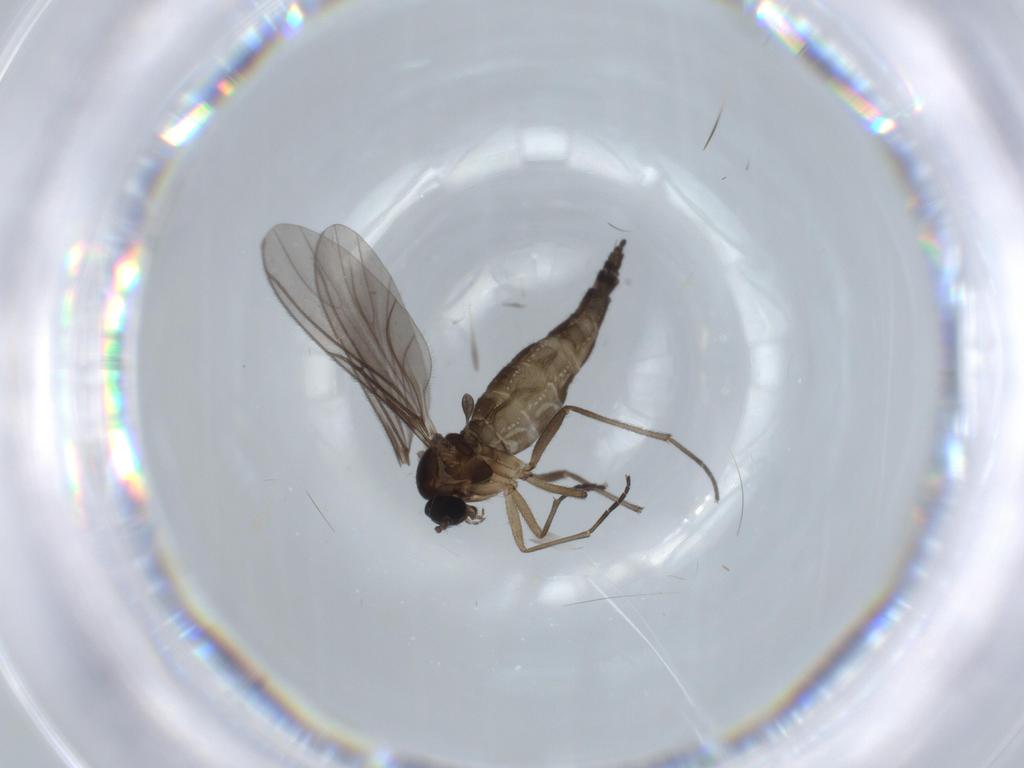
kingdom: Animalia
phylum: Arthropoda
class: Insecta
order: Diptera
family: Sciaridae
